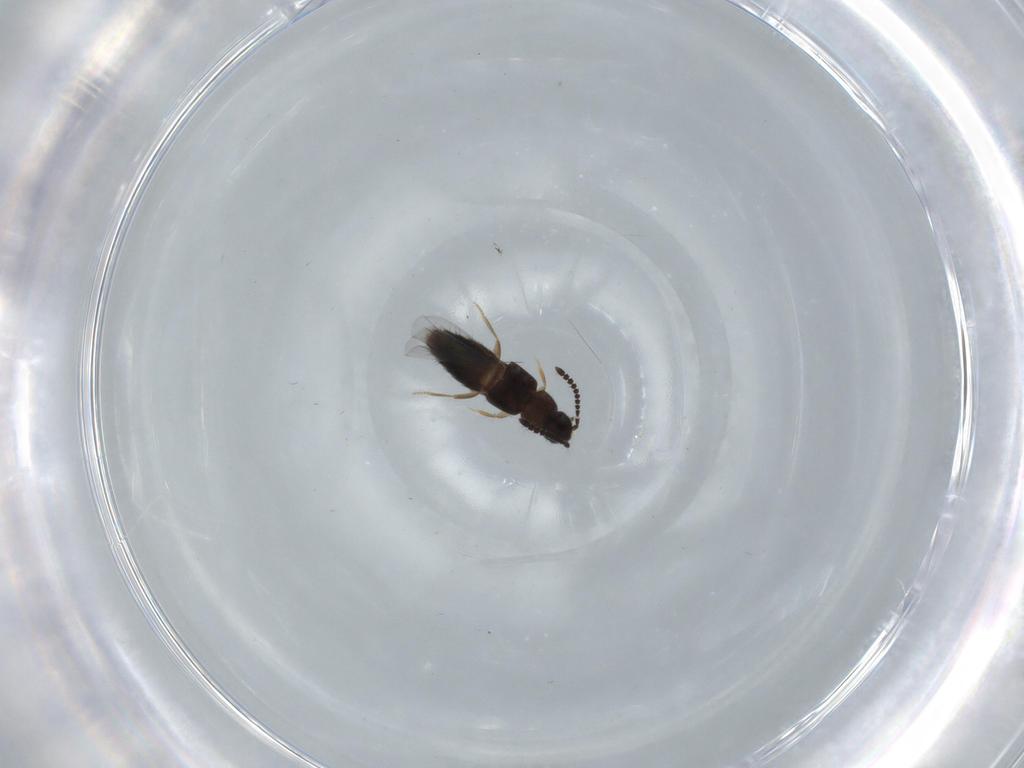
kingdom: Animalia
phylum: Arthropoda
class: Insecta
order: Coleoptera
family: Staphylinidae
